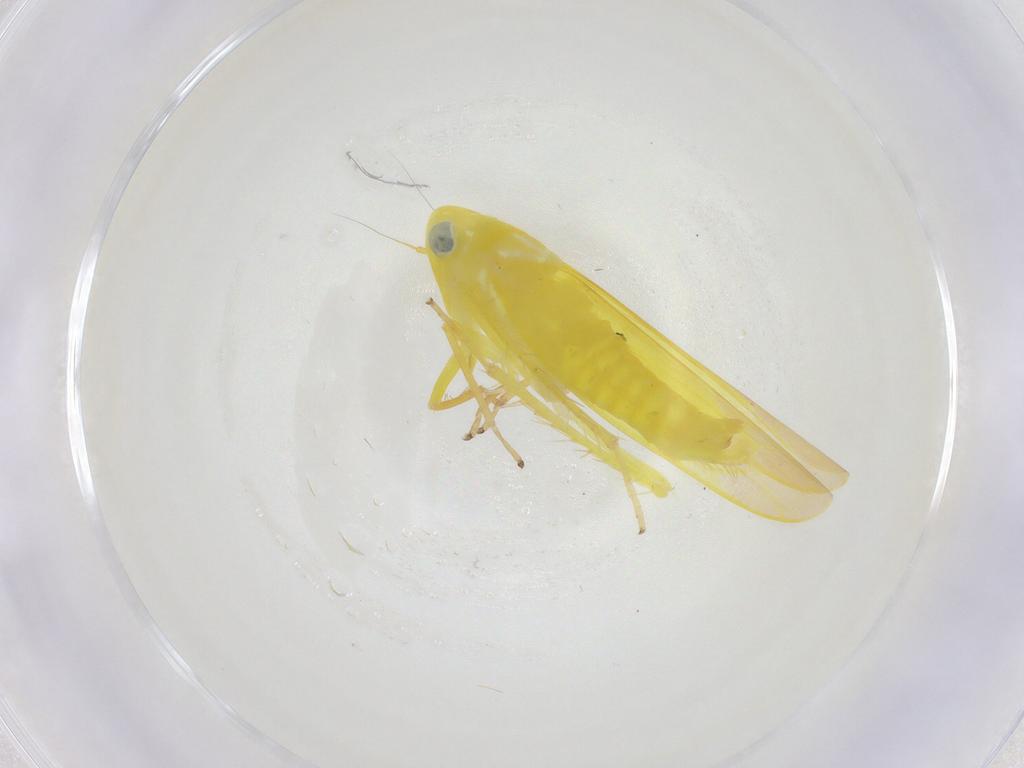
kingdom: Animalia
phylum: Arthropoda
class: Insecta
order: Hemiptera
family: Cicadellidae
